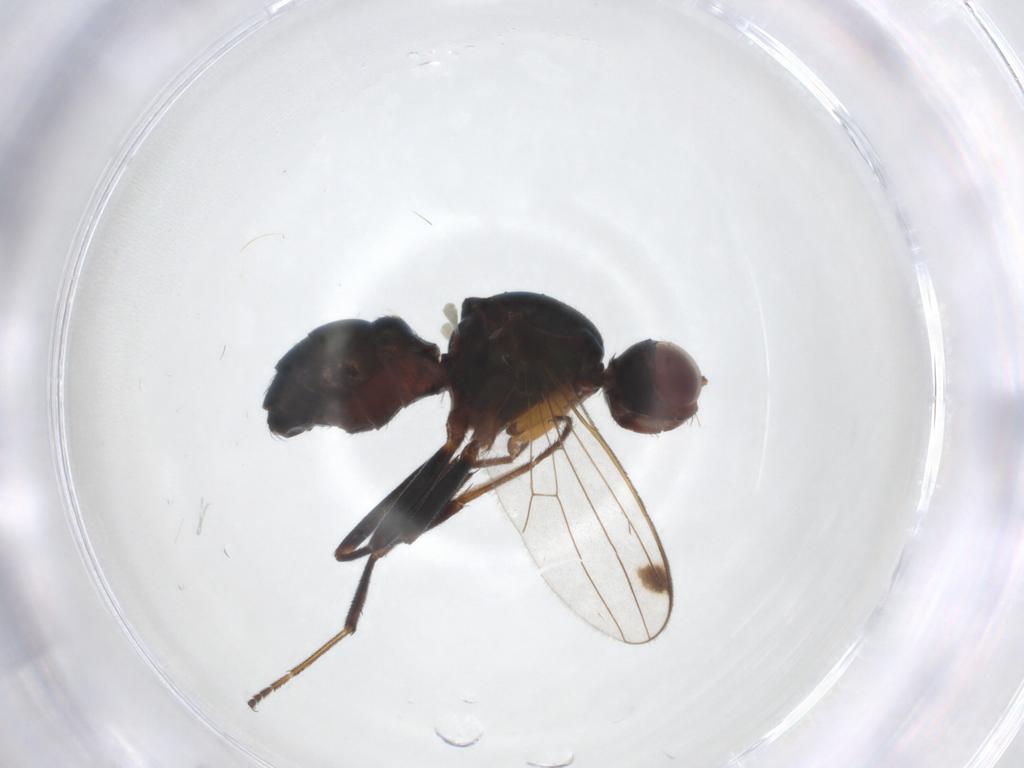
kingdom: Animalia
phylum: Arthropoda
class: Insecta
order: Diptera
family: Sepsidae
